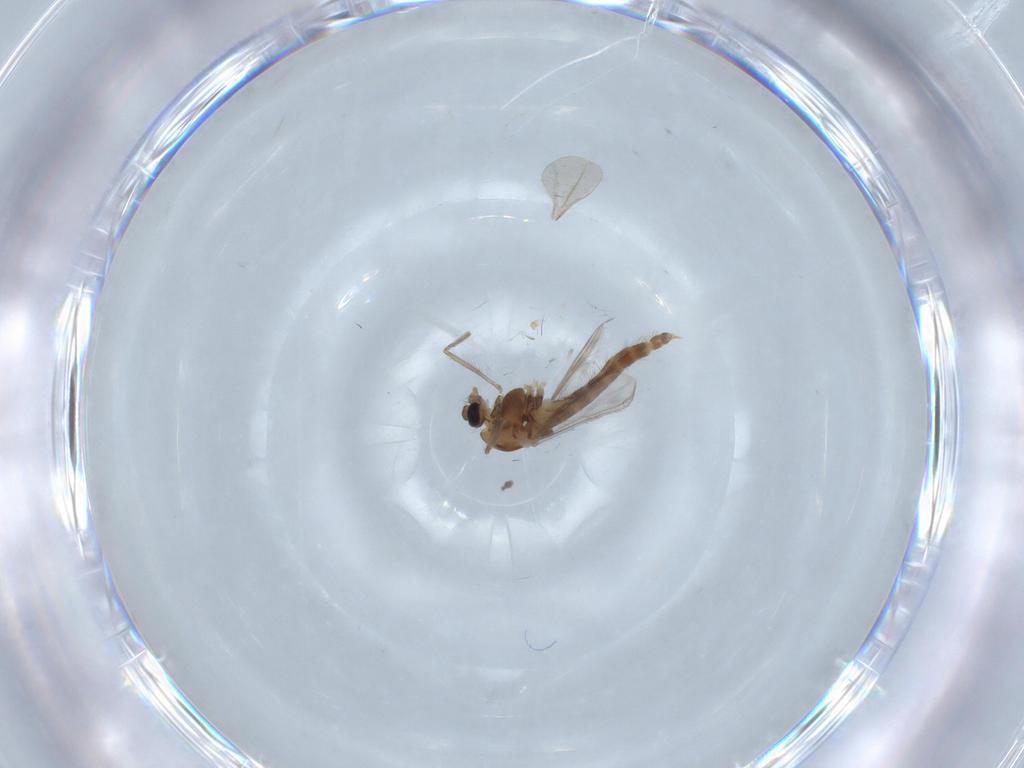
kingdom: Animalia
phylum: Arthropoda
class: Insecta
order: Diptera
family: Chironomidae
